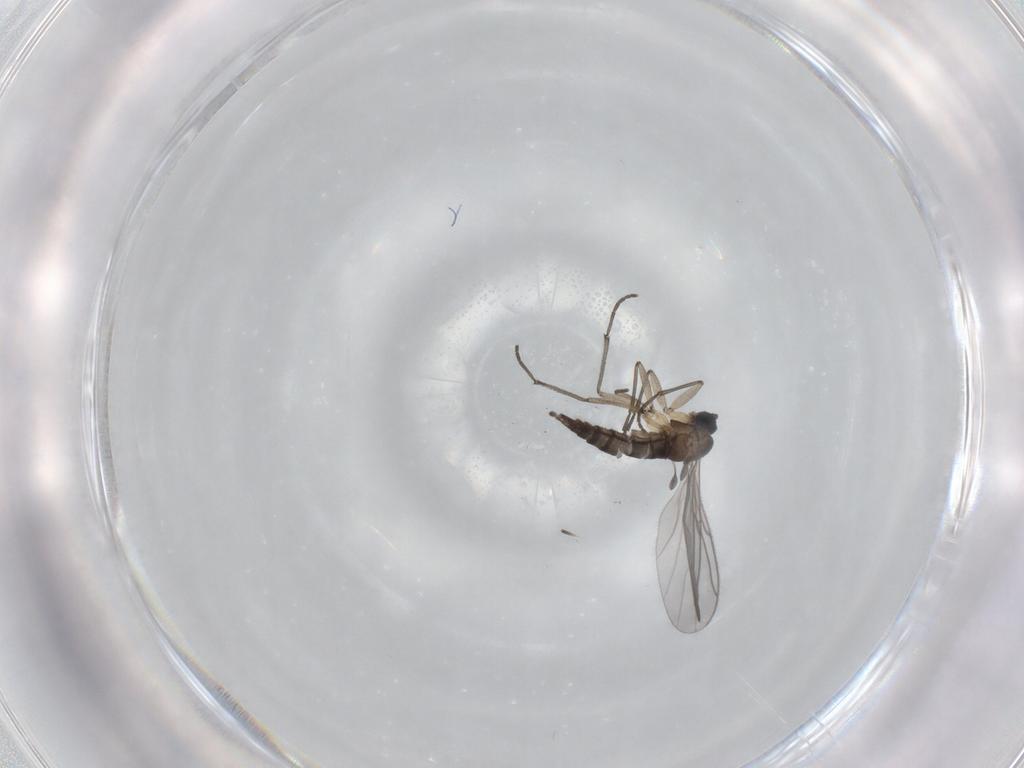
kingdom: Animalia
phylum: Arthropoda
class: Insecta
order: Diptera
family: Sciaridae
